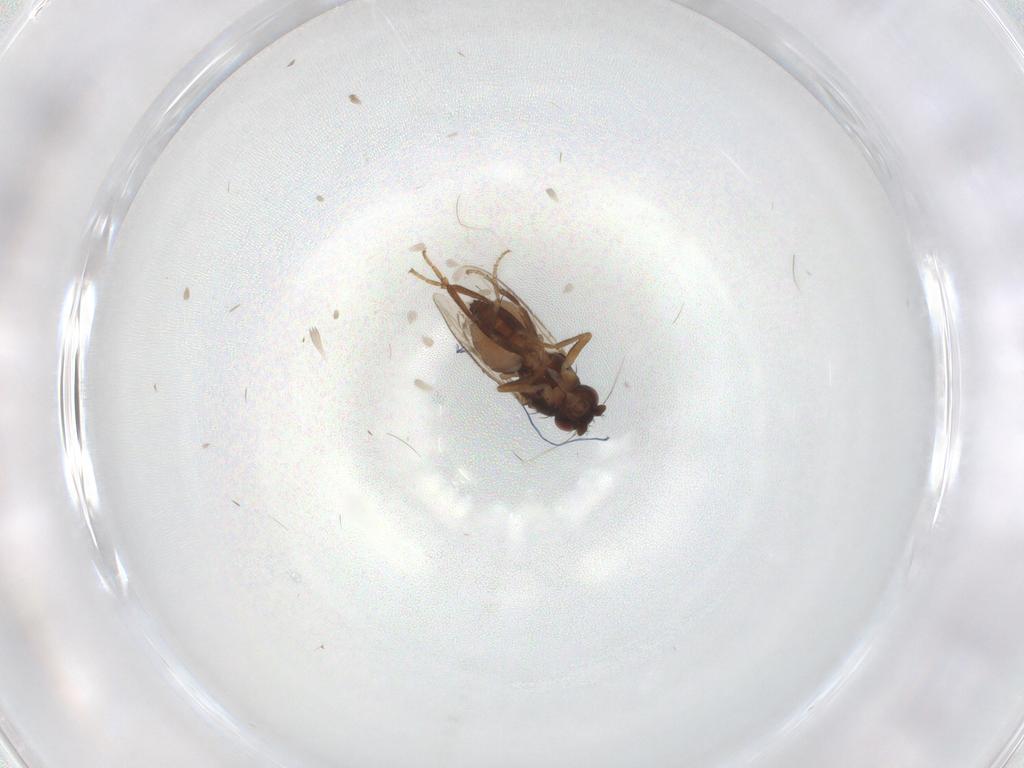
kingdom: Animalia
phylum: Arthropoda
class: Insecta
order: Diptera
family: Sphaeroceridae
